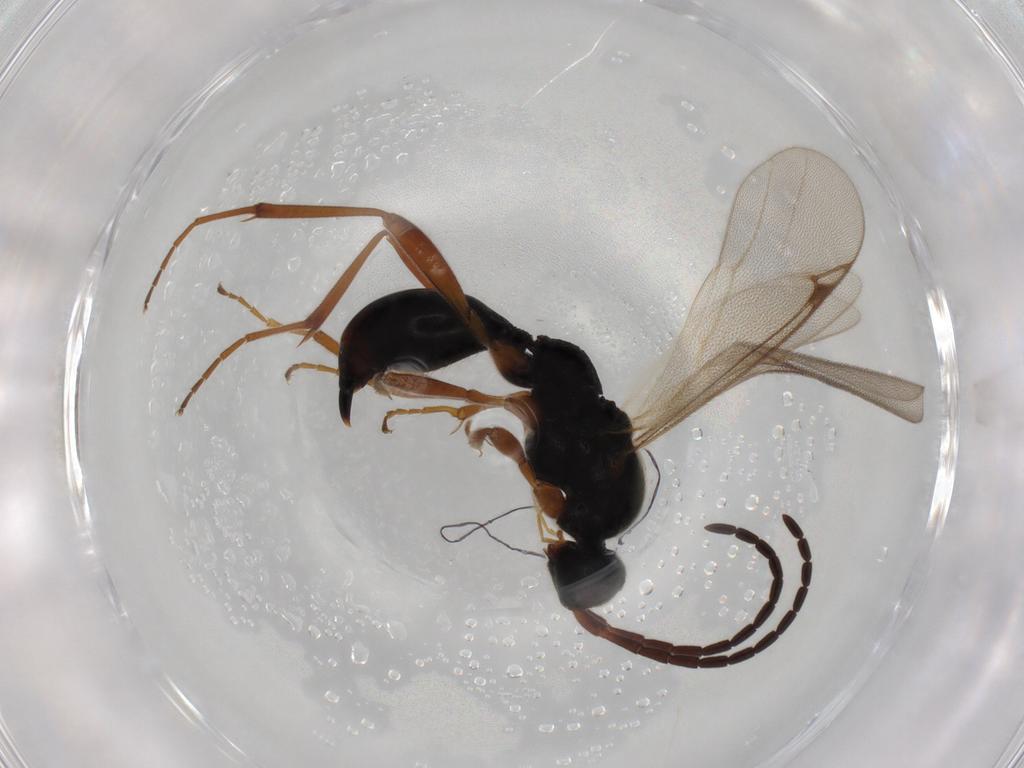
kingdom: Animalia
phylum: Arthropoda
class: Insecta
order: Hymenoptera
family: Proctotrupidae
